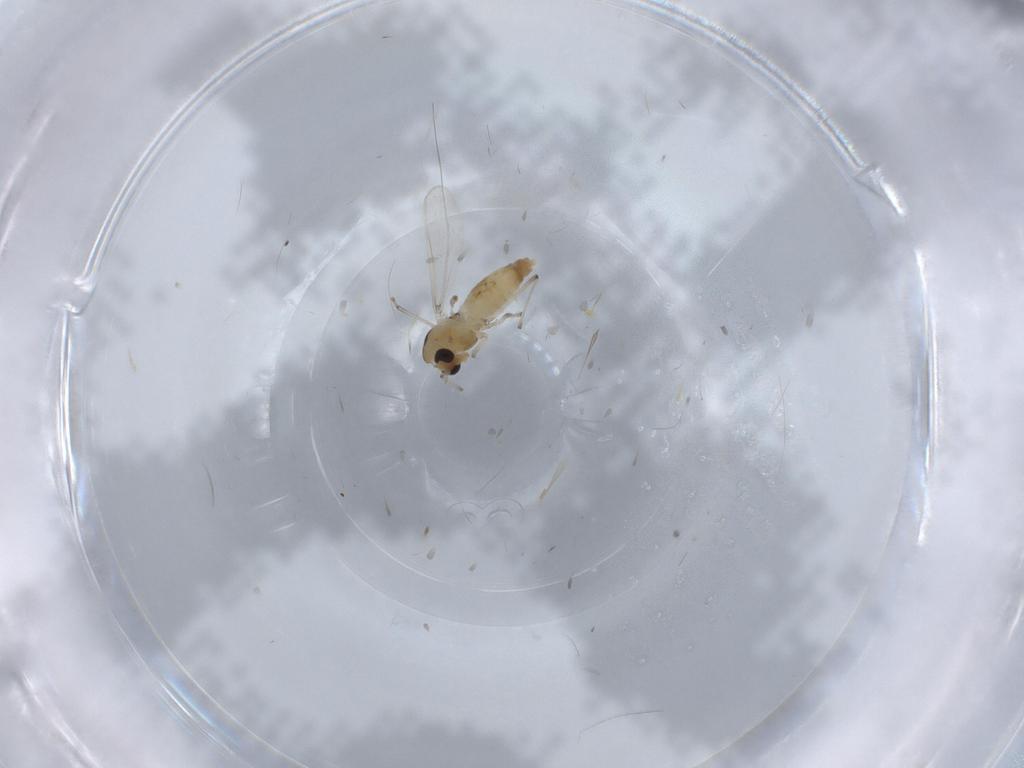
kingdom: Animalia
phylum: Arthropoda
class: Insecta
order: Diptera
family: Chironomidae
